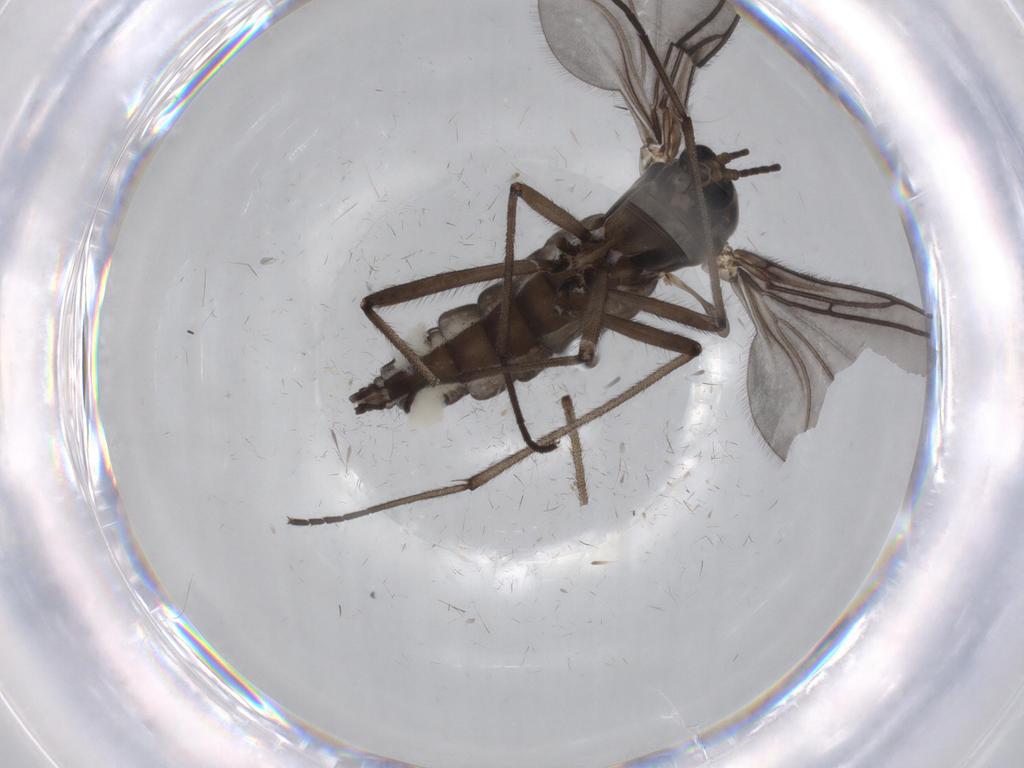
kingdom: Animalia
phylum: Arthropoda
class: Insecta
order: Diptera
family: Sciaridae
